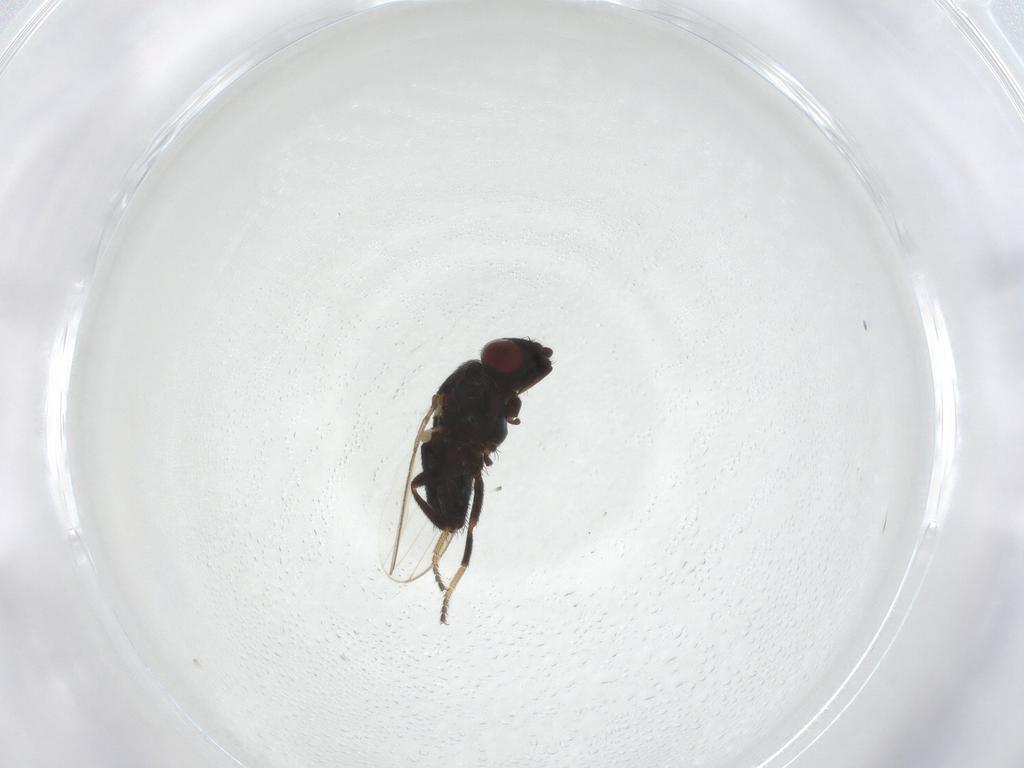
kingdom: Animalia
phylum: Arthropoda
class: Insecta
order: Diptera
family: Milichiidae
